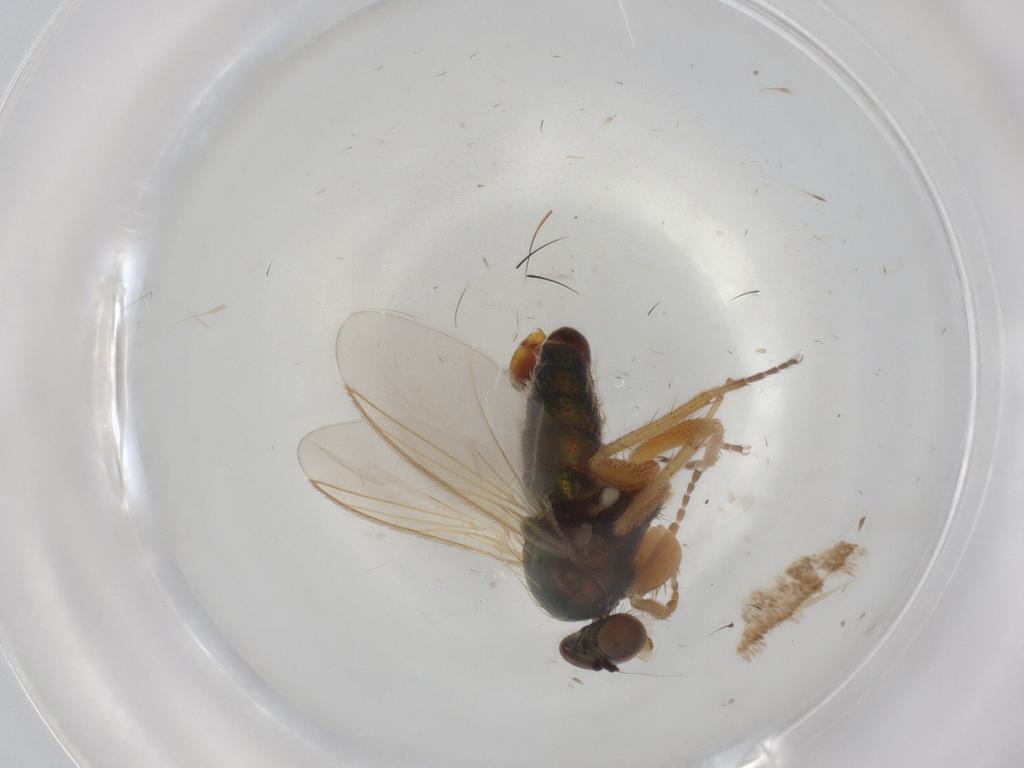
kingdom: Animalia
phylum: Arthropoda
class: Insecta
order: Diptera
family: Dolichopodidae
